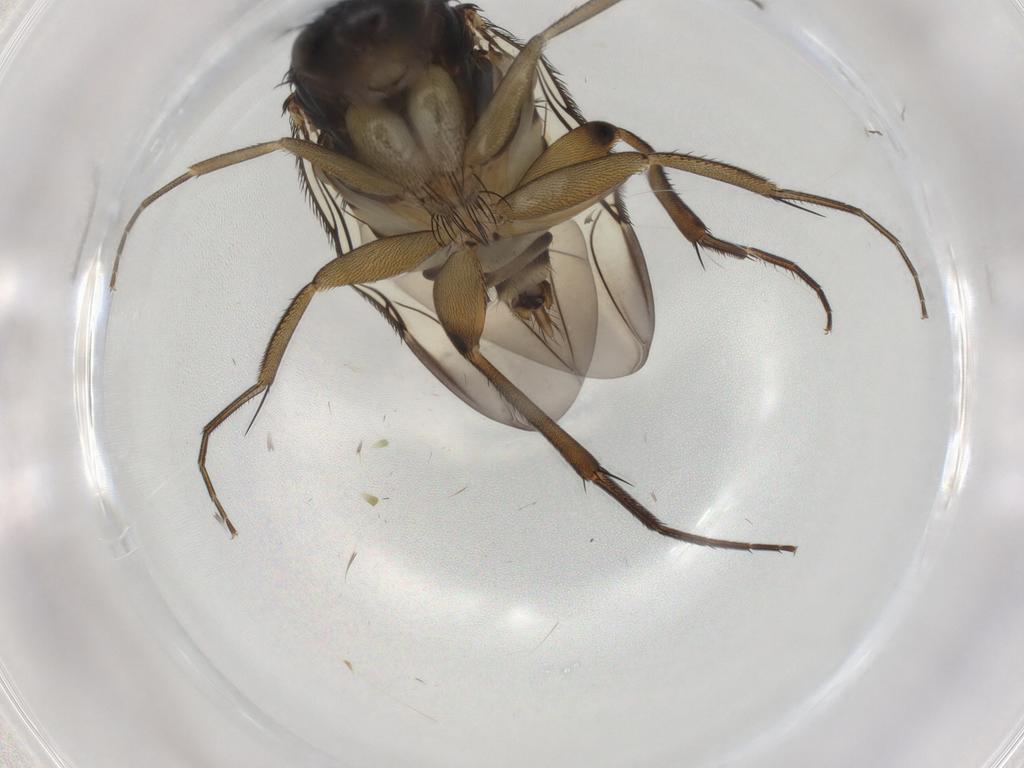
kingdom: Animalia
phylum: Arthropoda
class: Insecta
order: Diptera
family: Phoridae
